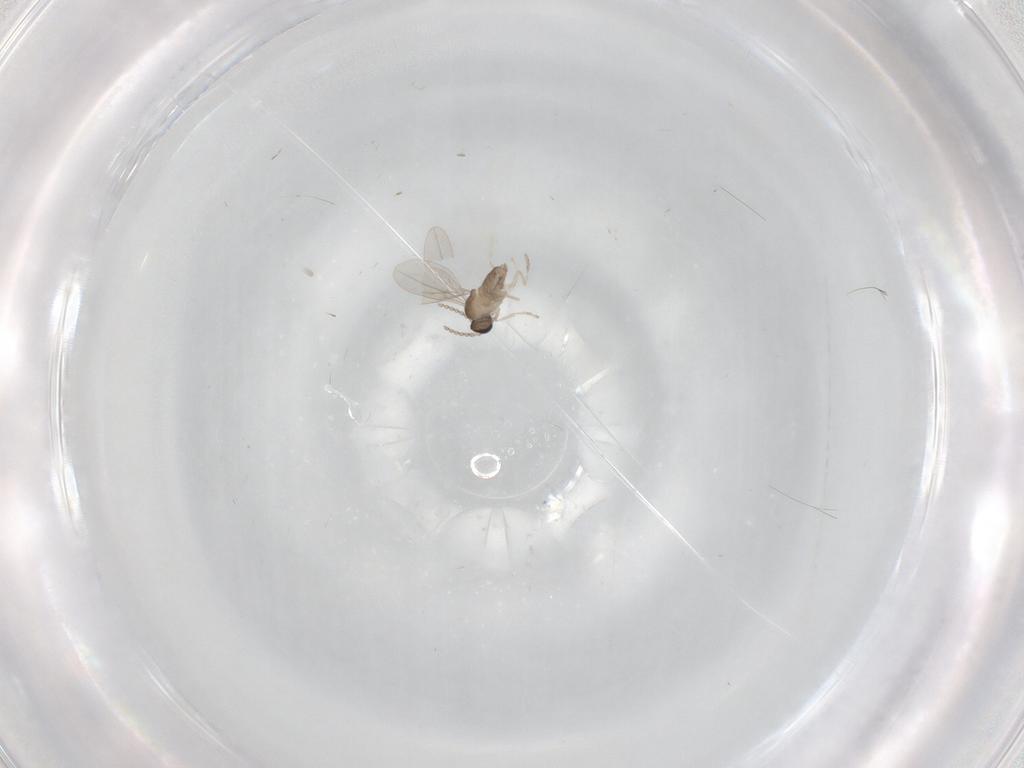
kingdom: Animalia
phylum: Arthropoda
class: Insecta
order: Diptera
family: Cecidomyiidae
